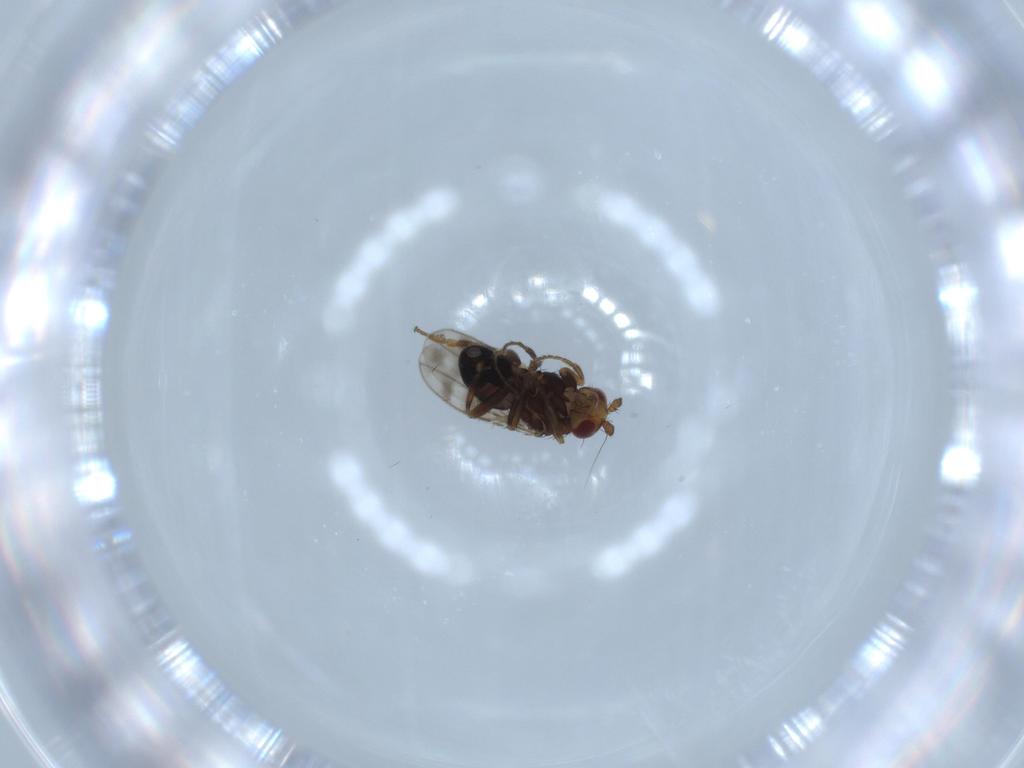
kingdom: Animalia
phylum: Arthropoda
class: Insecta
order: Diptera
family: Sphaeroceridae
